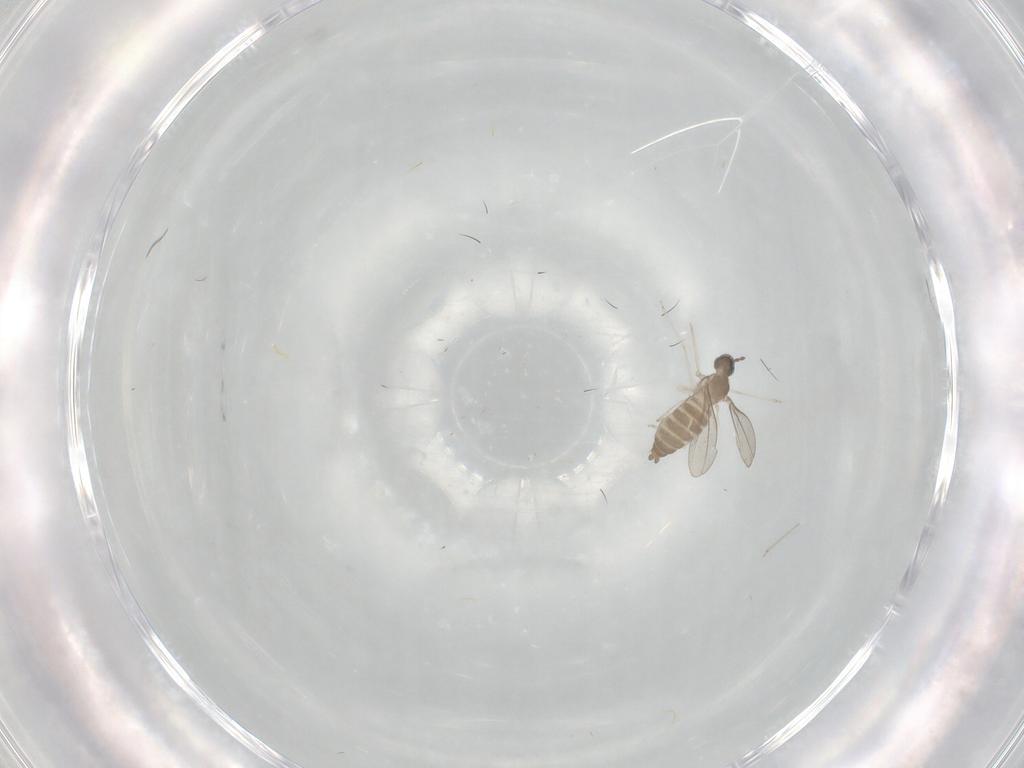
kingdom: Animalia
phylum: Arthropoda
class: Insecta
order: Diptera
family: Cecidomyiidae
